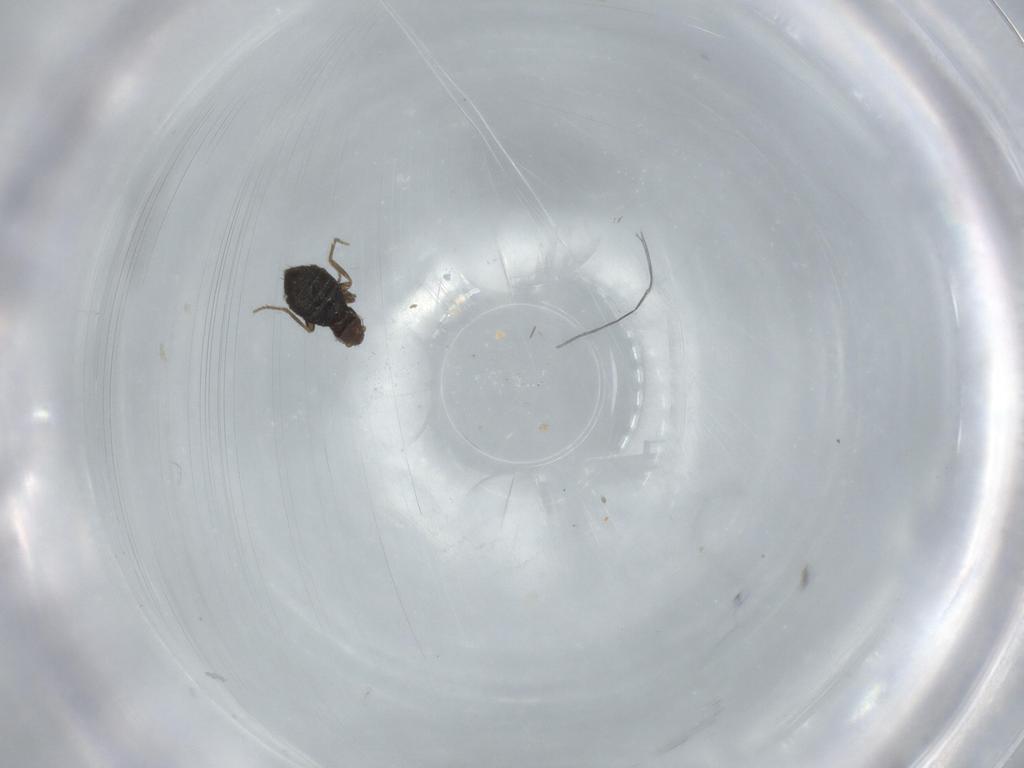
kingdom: Animalia
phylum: Arthropoda
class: Insecta
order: Diptera
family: Phoridae
